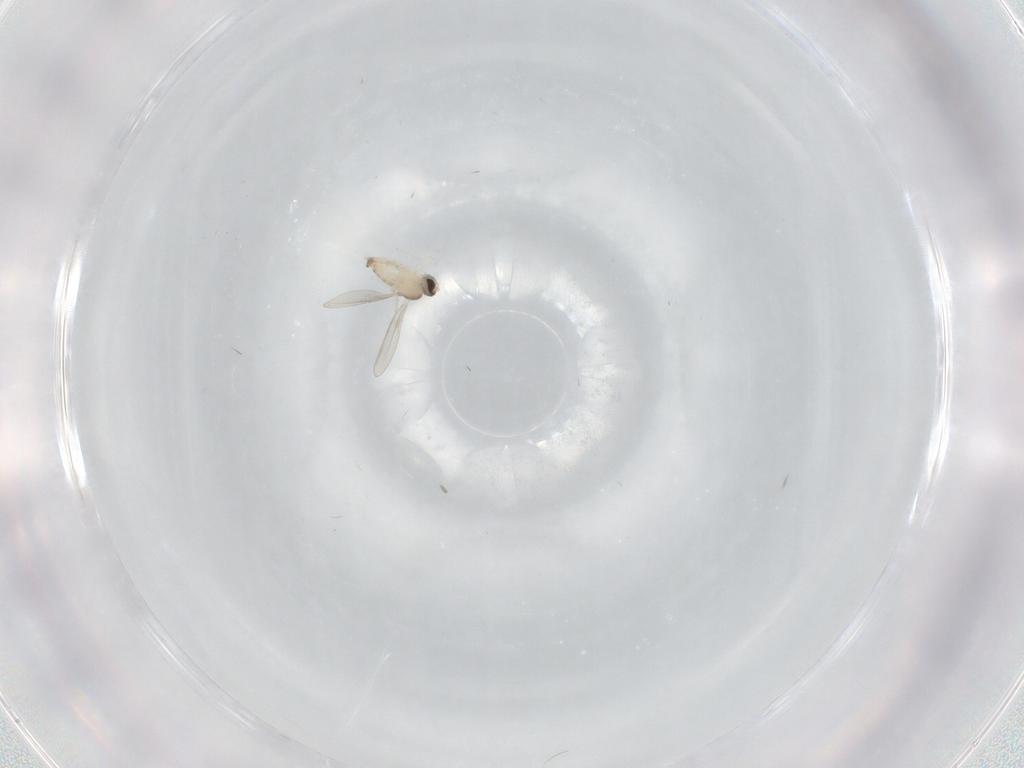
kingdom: Animalia
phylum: Arthropoda
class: Insecta
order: Diptera
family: Cecidomyiidae
